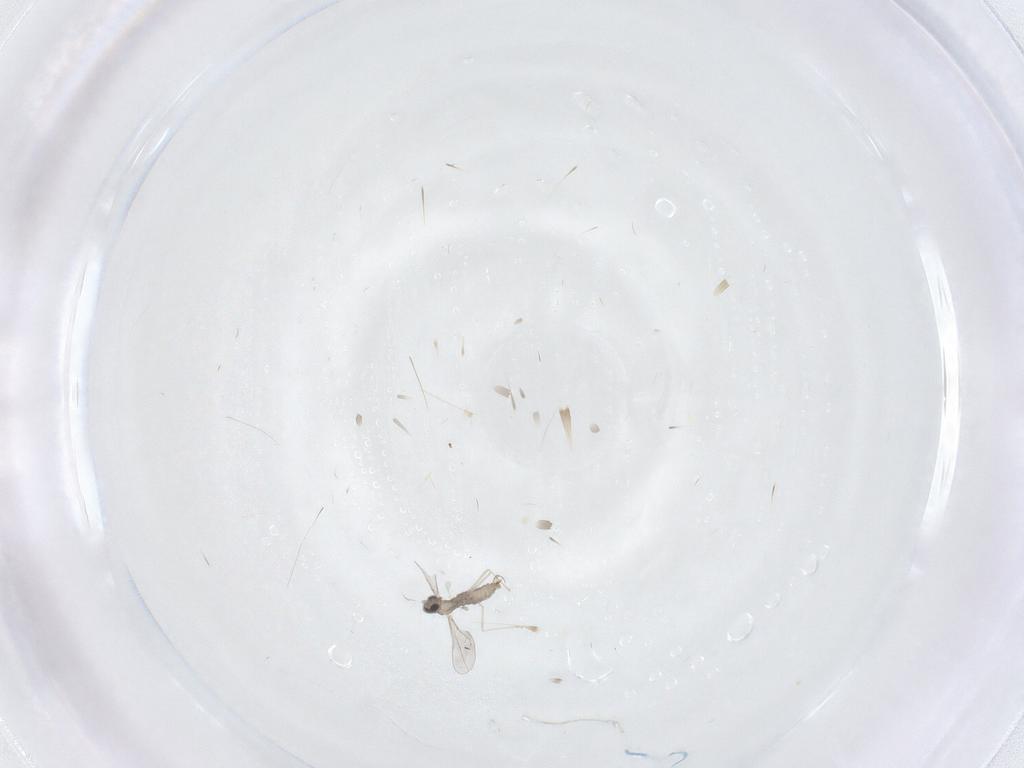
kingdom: Animalia
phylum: Arthropoda
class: Insecta
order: Diptera
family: Cecidomyiidae
